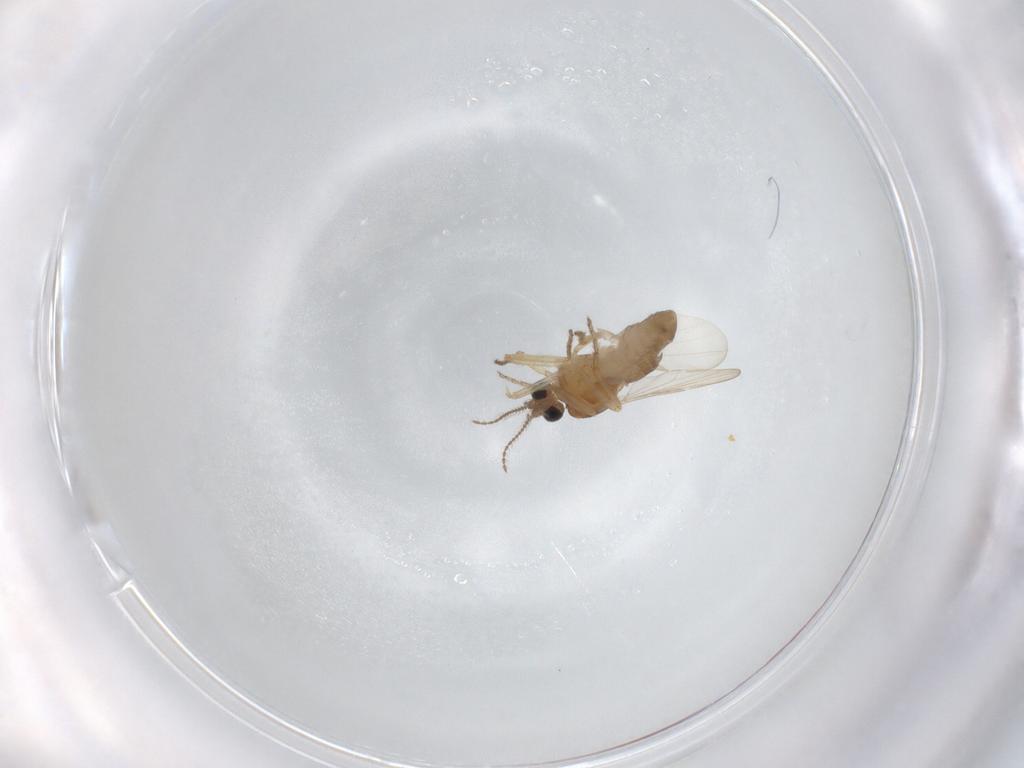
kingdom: Animalia
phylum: Arthropoda
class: Insecta
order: Diptera
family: Ceratopogonidae
